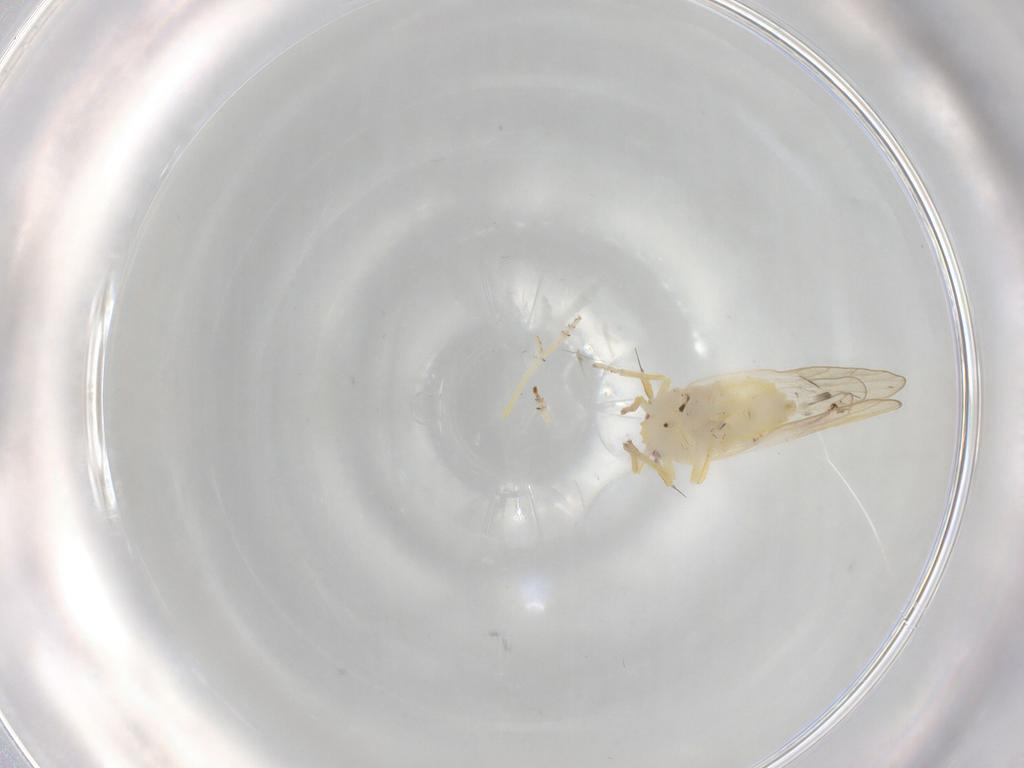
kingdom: Animalia
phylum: Arthropoda
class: Insecta
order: Hemiptera
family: Delphacidae
